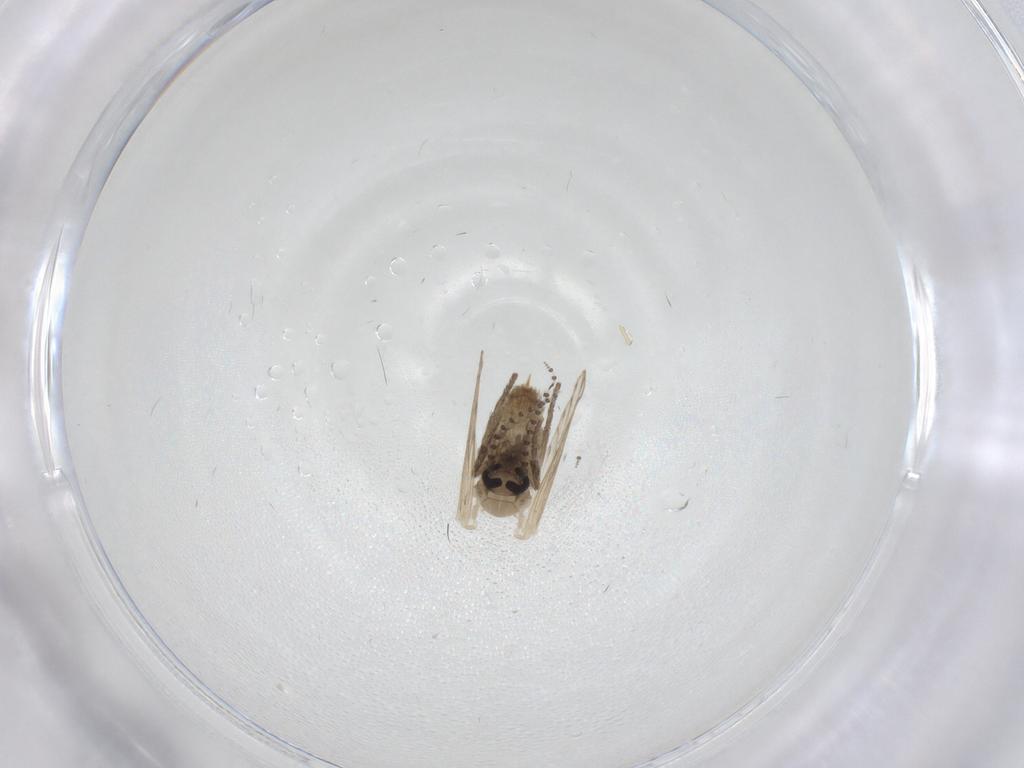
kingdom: Animalia
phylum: Arthropoda
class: Insecta
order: Diptera
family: Psychodidae
